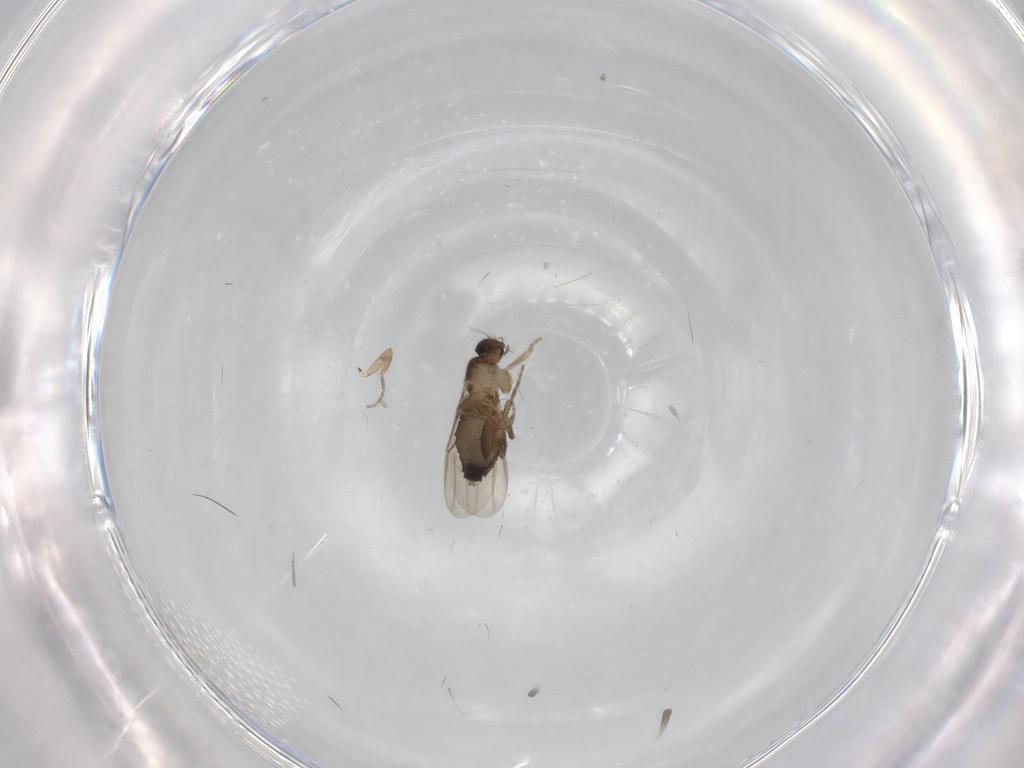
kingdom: Animalia
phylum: Arthropoda
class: Insecta
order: Diptera
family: Phoridae
